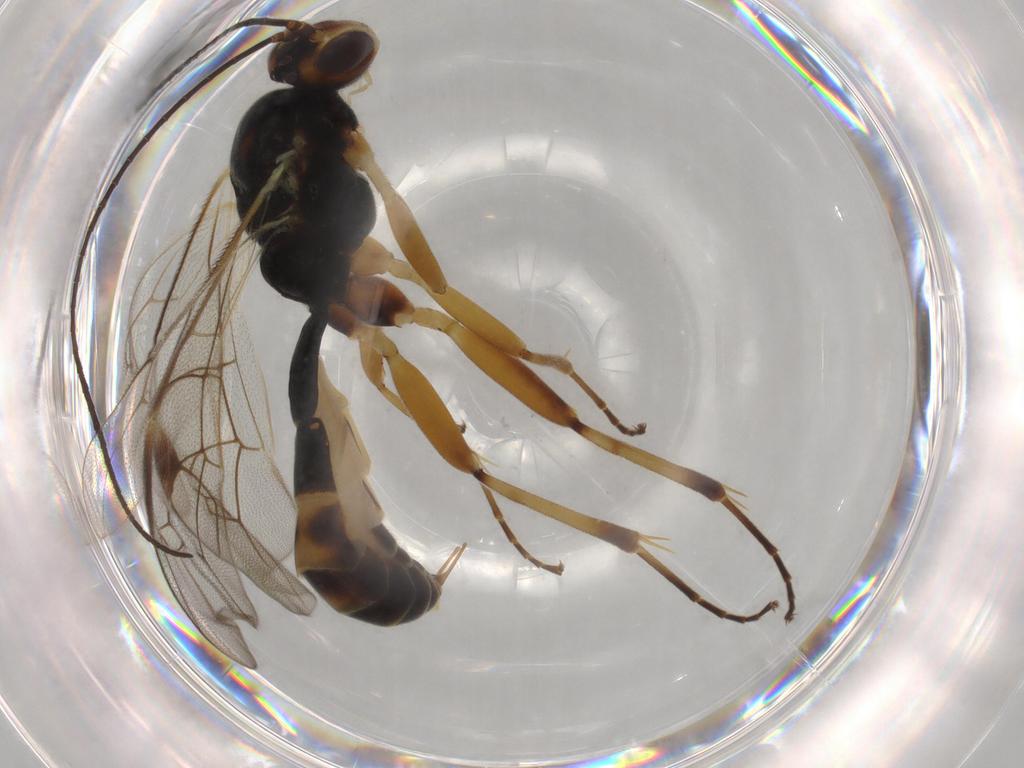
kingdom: Animalia
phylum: Arthropoda
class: Insecta
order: Hymenoptera
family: Ichneumonidae
